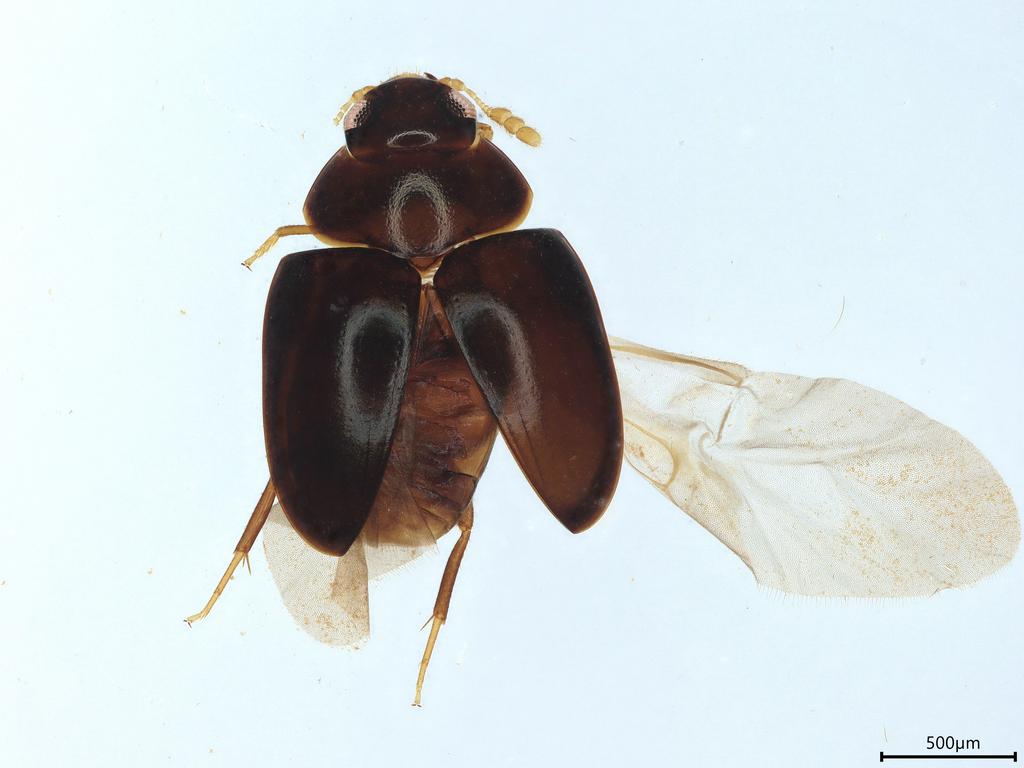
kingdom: Animalia
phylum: Arthropoda
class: Insecta
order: Coleoptera
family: Phalacridae
